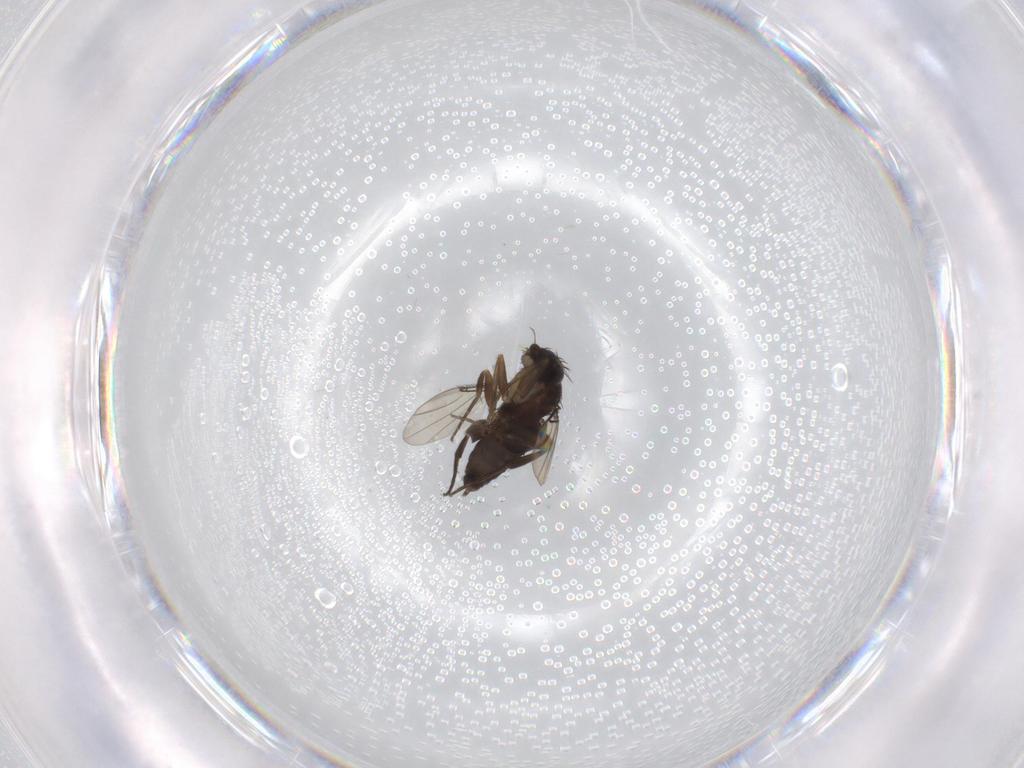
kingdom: Animalia
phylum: Arthropoda
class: Insecta
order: Diptera
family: Phoridae
